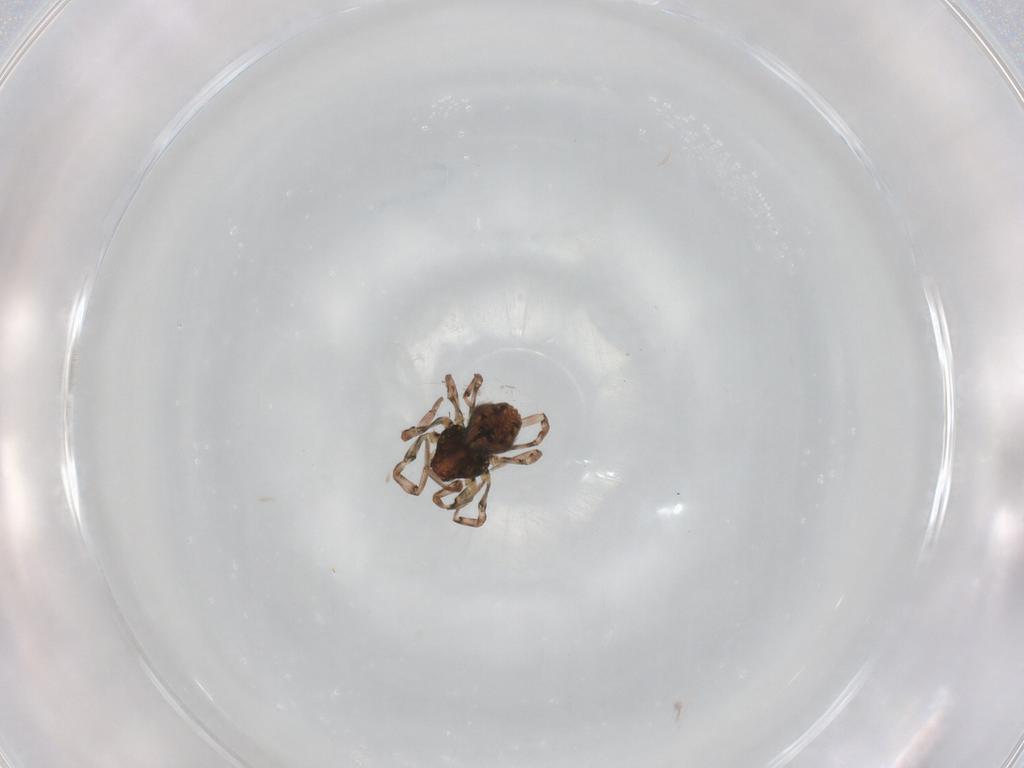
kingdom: Animalia
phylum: Arthropoda
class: Arachnida
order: Araneae
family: Dictynidae
